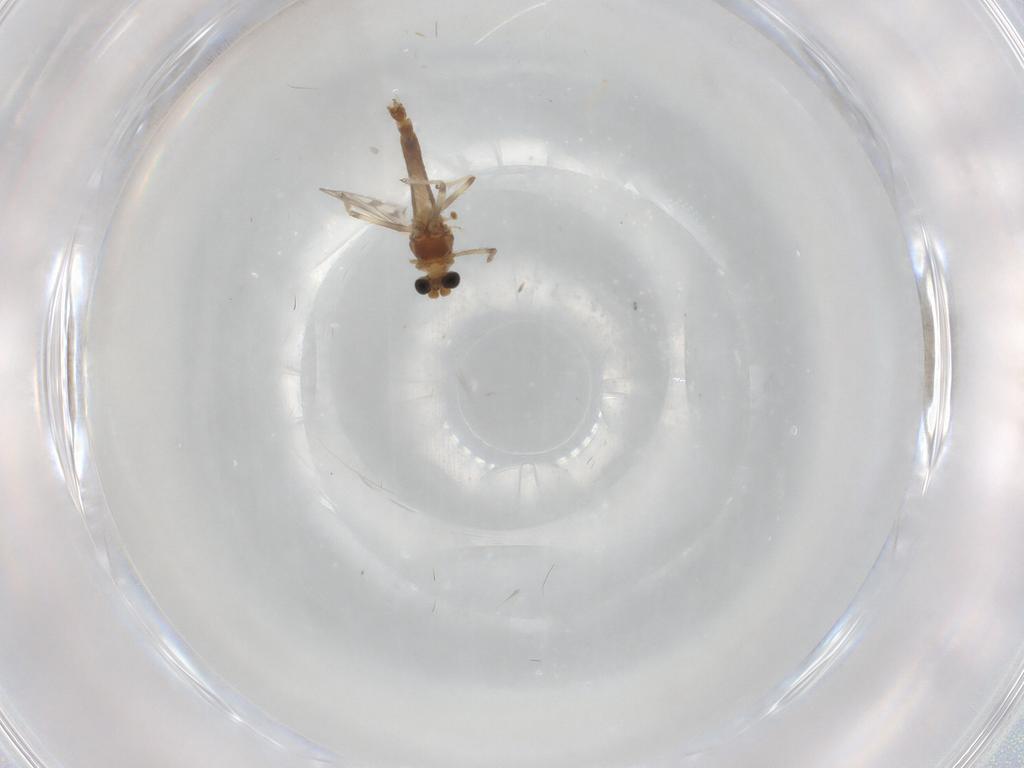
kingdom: Animalia
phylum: Arthropoda
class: Insecta
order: Diptera
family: Chironomidae
